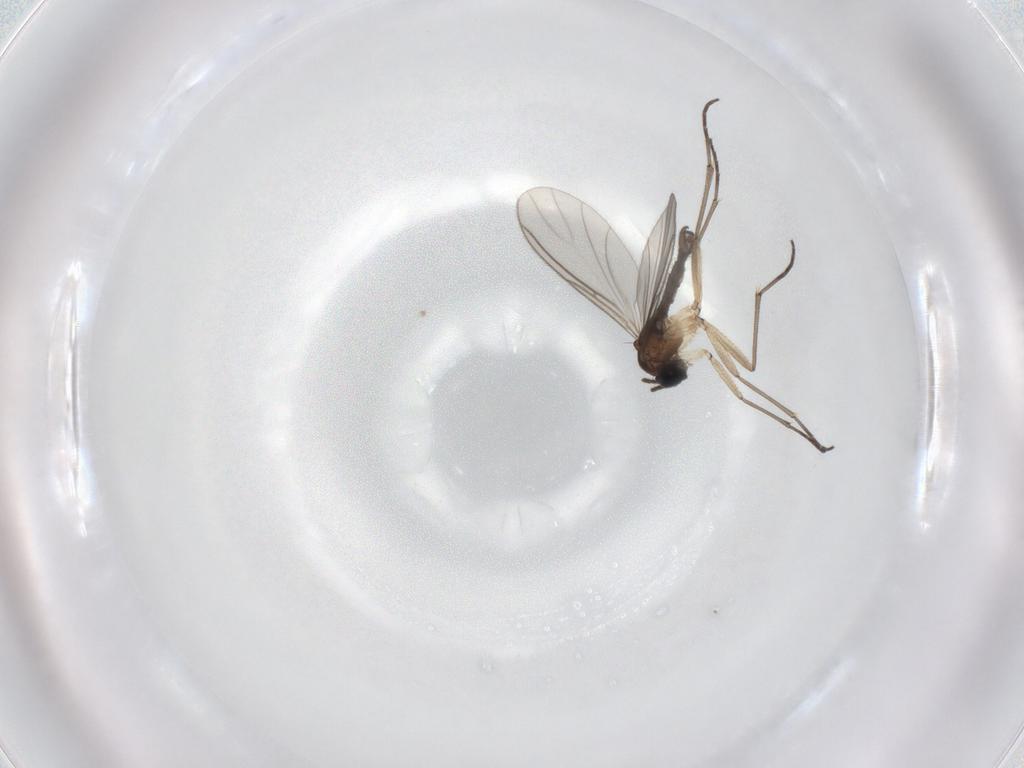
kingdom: Animalia
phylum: Arthropoda
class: Insecta
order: Diptera
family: Sciaridae
